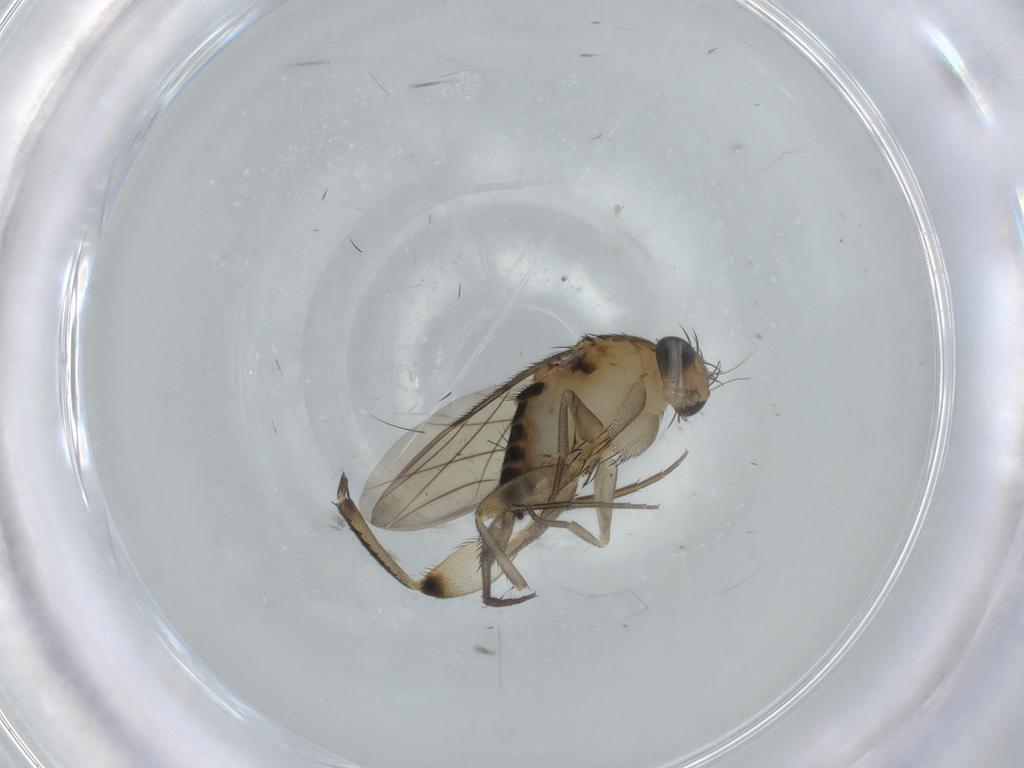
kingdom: Animalia
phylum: Arthropoda
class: Insecta
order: Diptera
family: Phoridae
